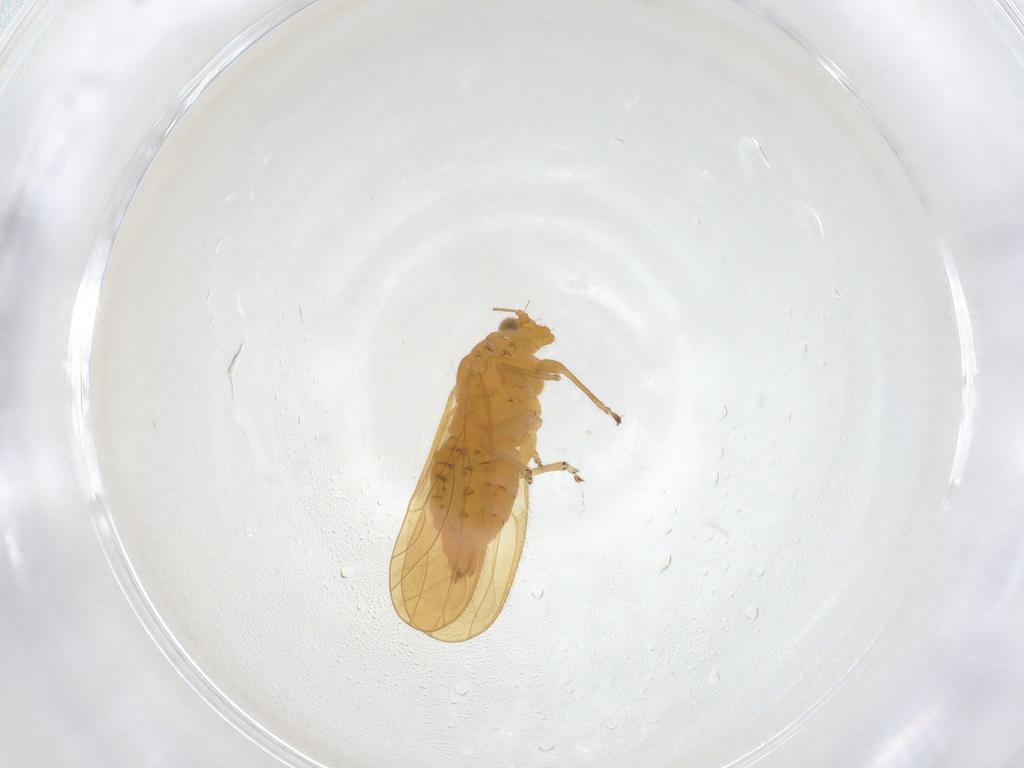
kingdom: Animalia
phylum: Arthropoda
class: Insecta
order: Hemiptera
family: Psyllidae
